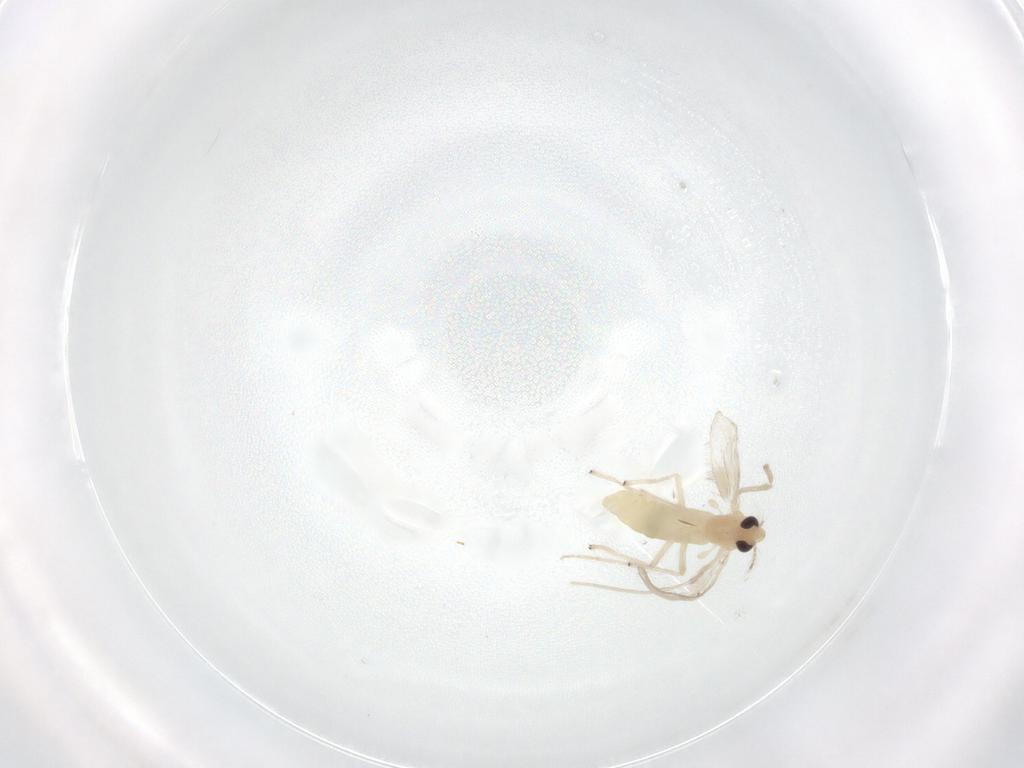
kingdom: Animalia
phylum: Arthropoda
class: Insecta
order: Diptera
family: Chironomidae
